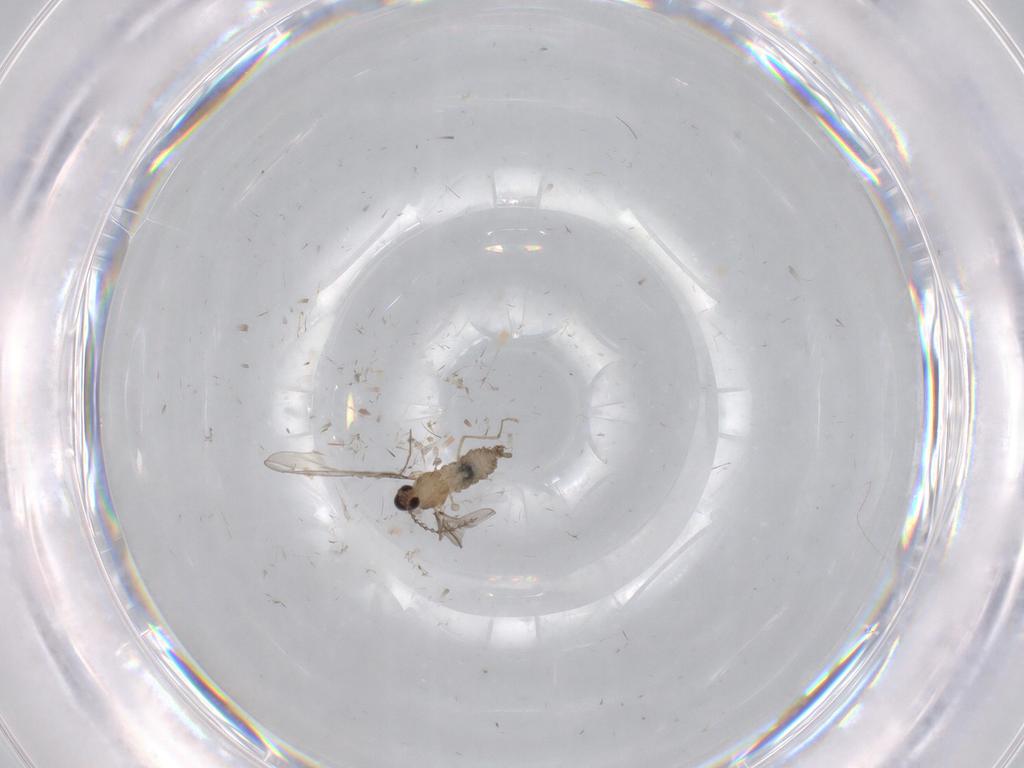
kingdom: Animalia
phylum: Arthropoda
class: Insecta
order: Diptera
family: Cecidomyiidae
